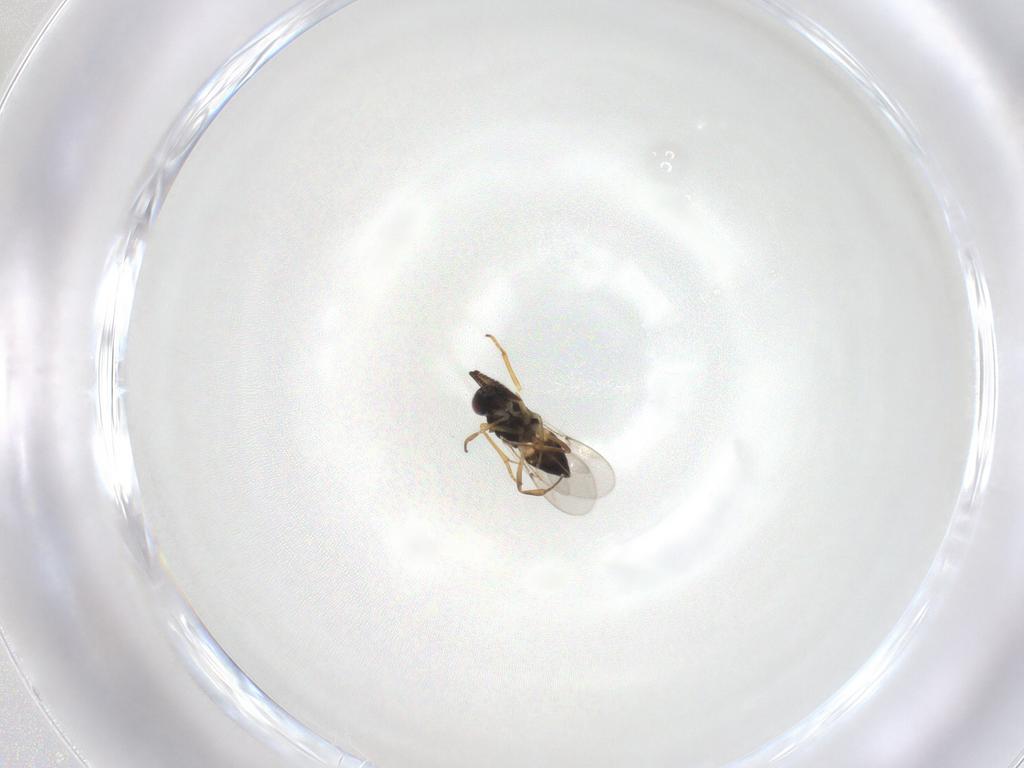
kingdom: Animalia
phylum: Arthropoda
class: Insecta
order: Hymenoptera
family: Encyrtidae
